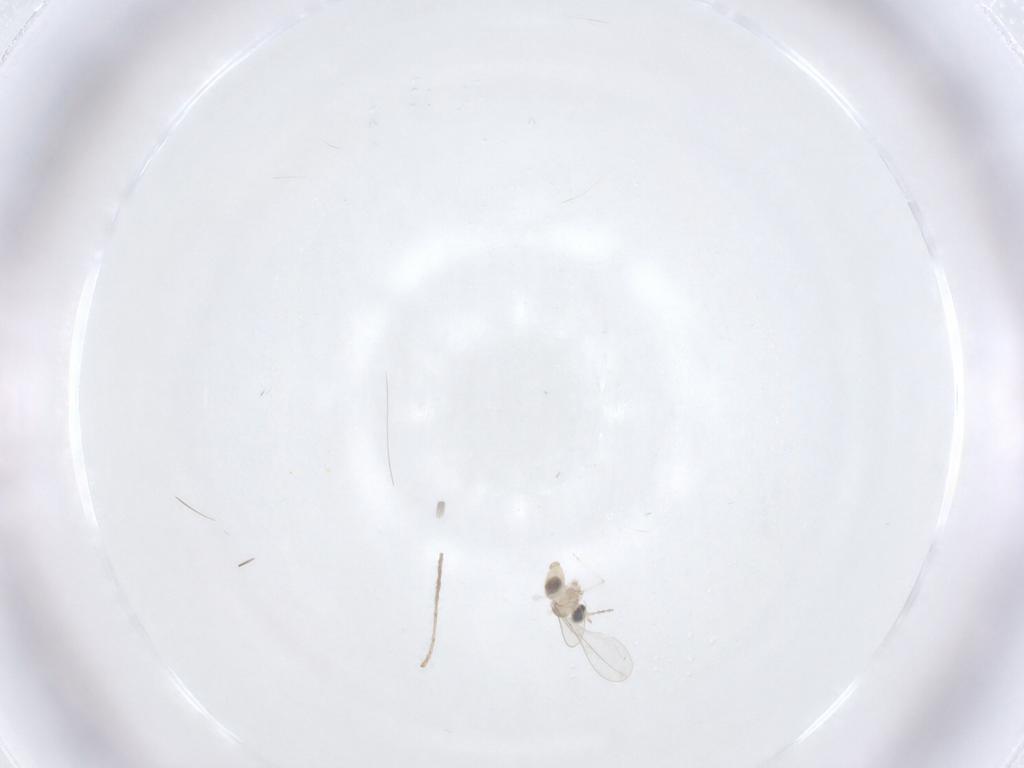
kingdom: Animalia
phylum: Arthropoda
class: Insecta
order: Diptera
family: Cecidomyiidae
